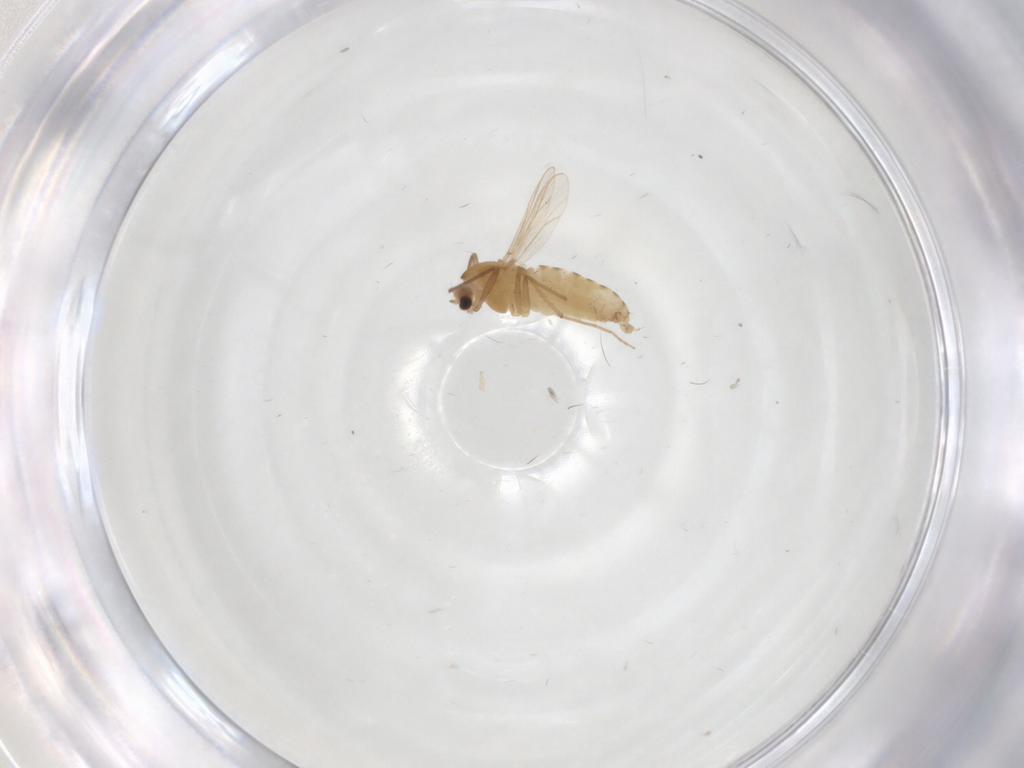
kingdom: Animalia
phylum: Arthropoda
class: Insecta
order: Diptera
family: Chironomidae
